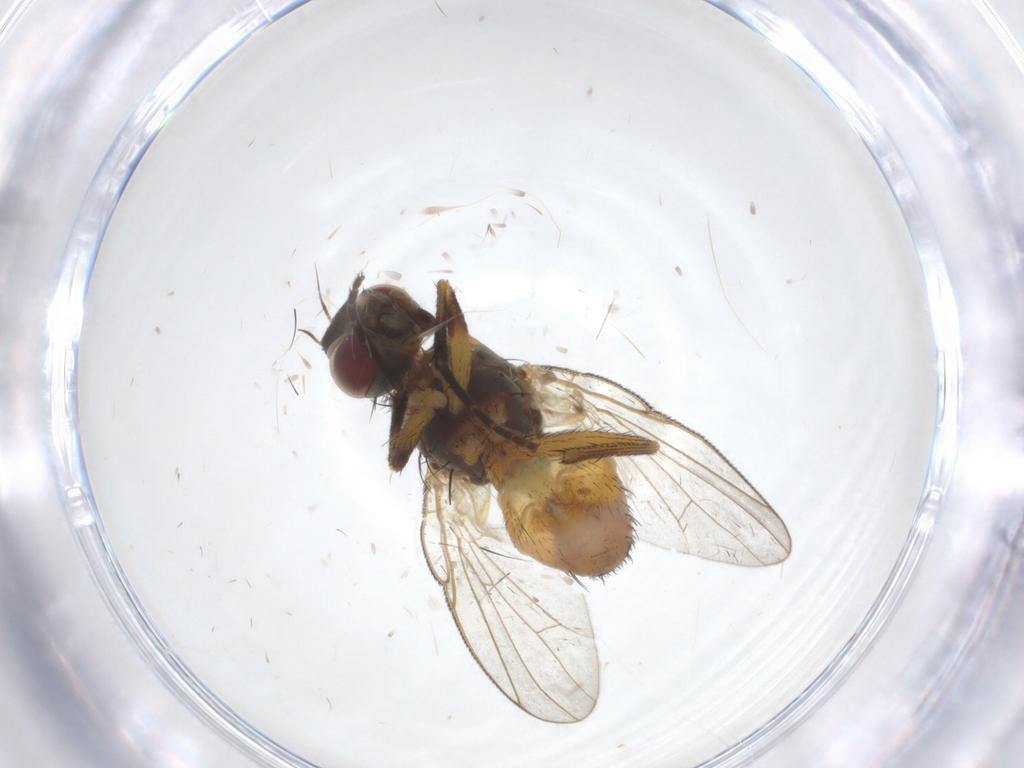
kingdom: Animalia
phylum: Arthropoda
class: Insecta
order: Diptera
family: Muscidae
